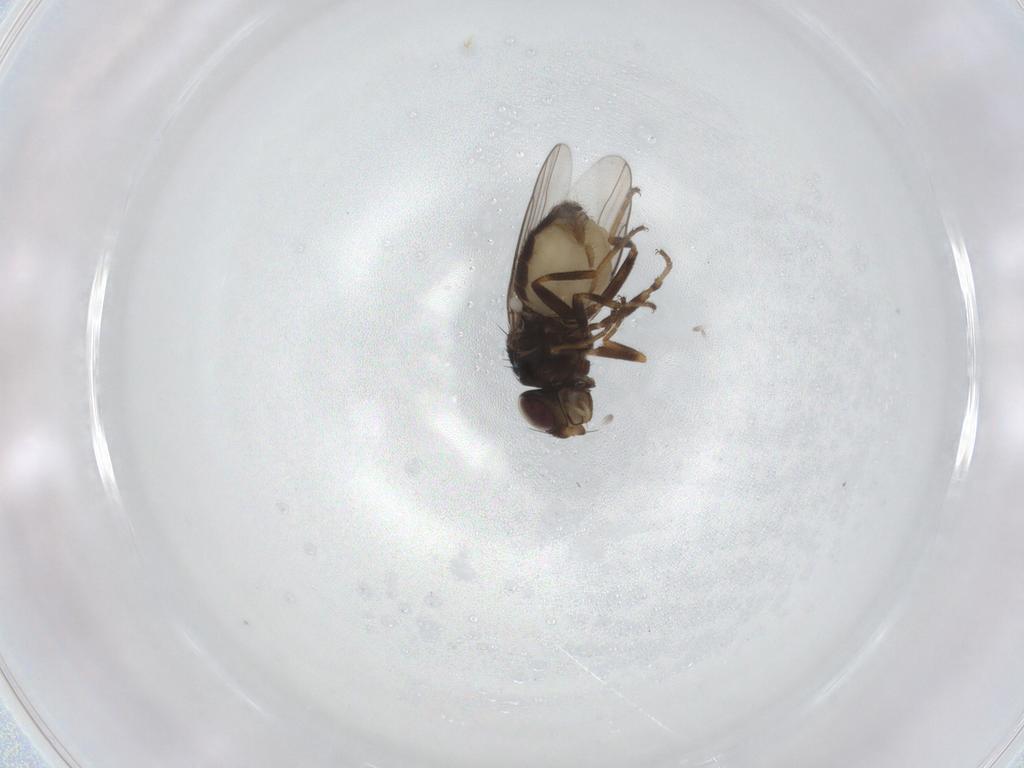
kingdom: Animalia
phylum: Arthropoda
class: Insecta
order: Diptera
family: Chloropidae
